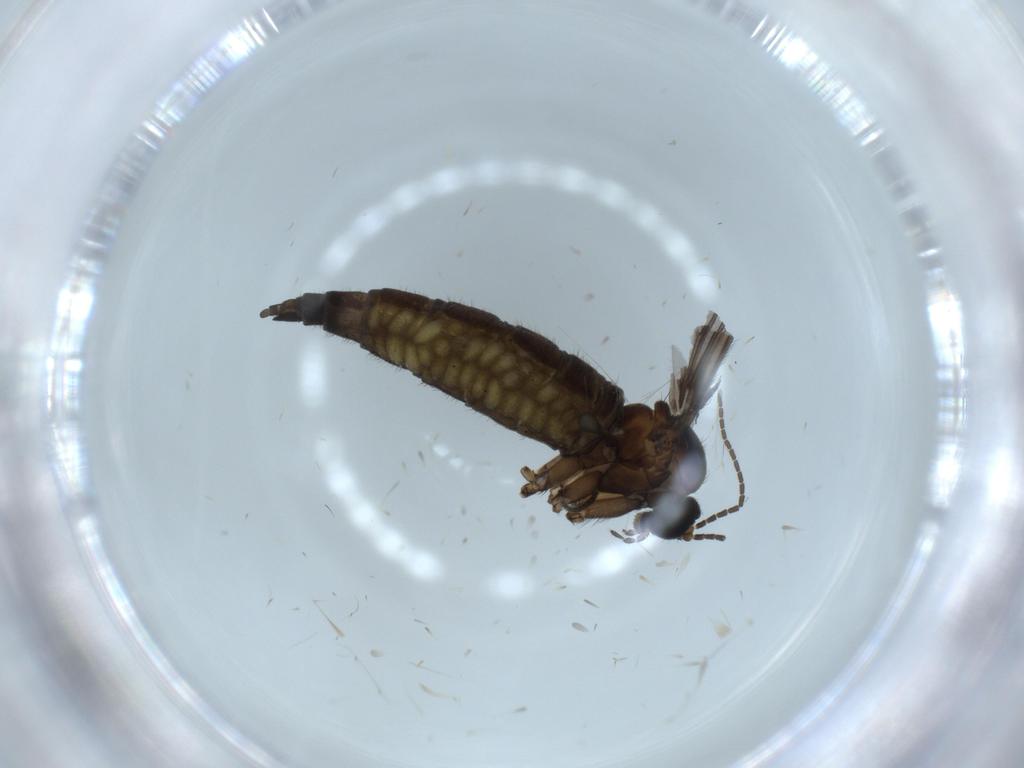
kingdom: Animalia
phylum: Arthropoda
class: Insecta
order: Diptera
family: Sciaridae
